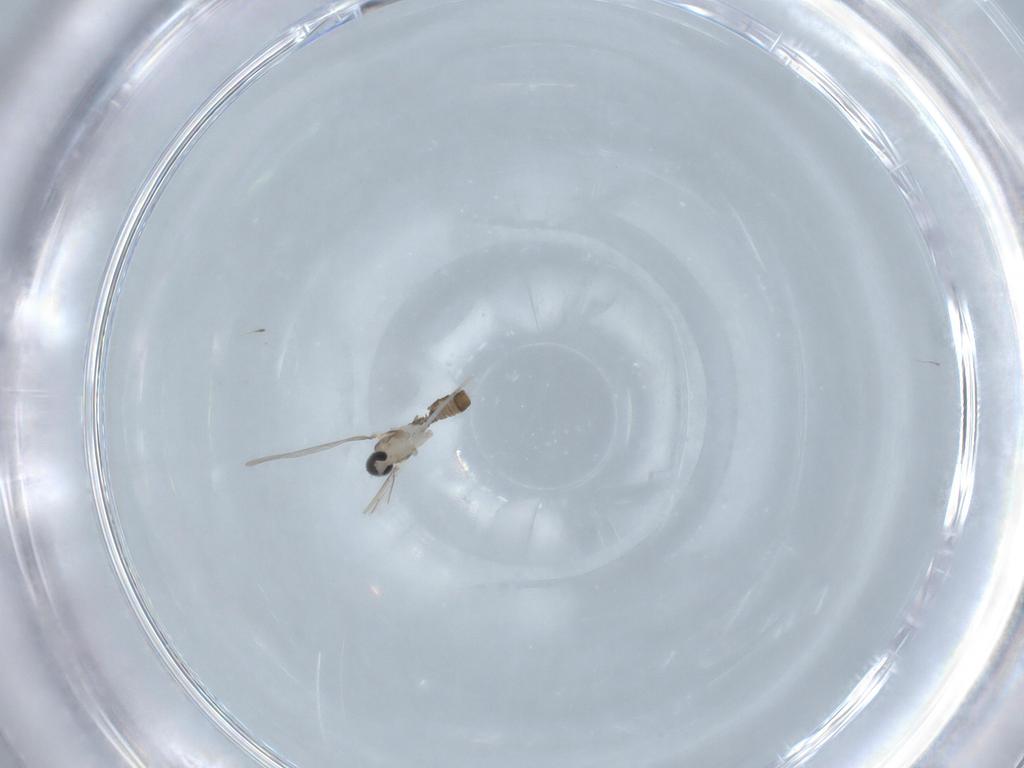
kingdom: Animalia
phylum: Arthropoda
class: Insecta
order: Diptera
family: Cecidomyiidae
